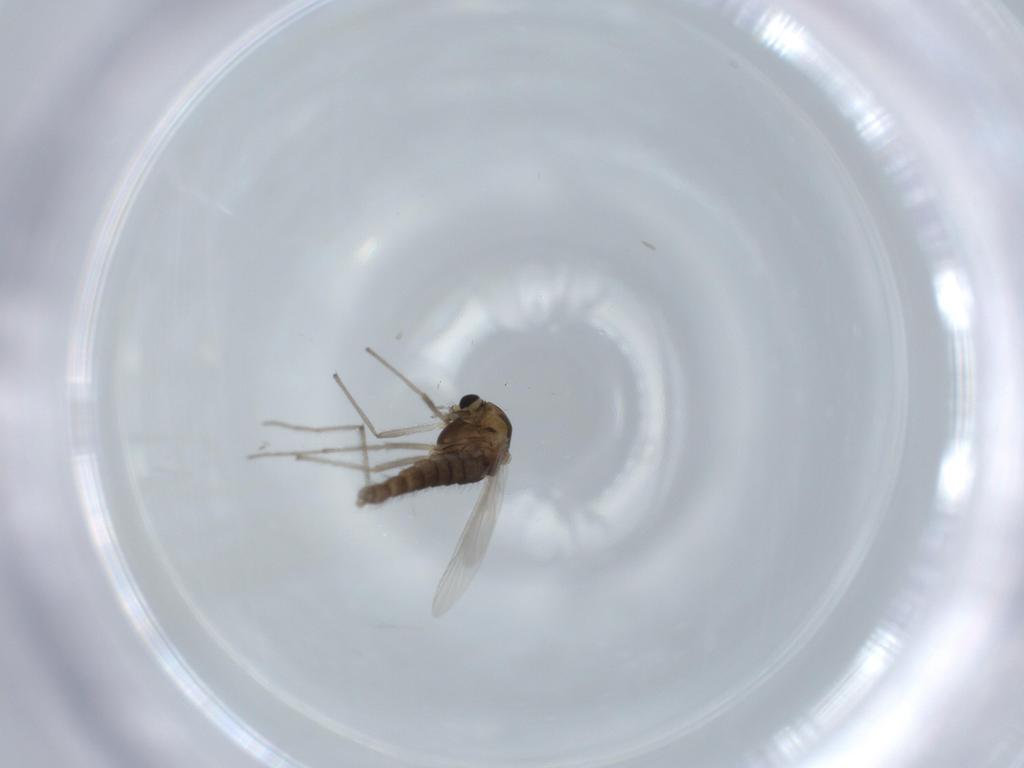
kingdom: Animalia
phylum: Arthropoda
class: Insecta
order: Diptera
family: Chironomidae
